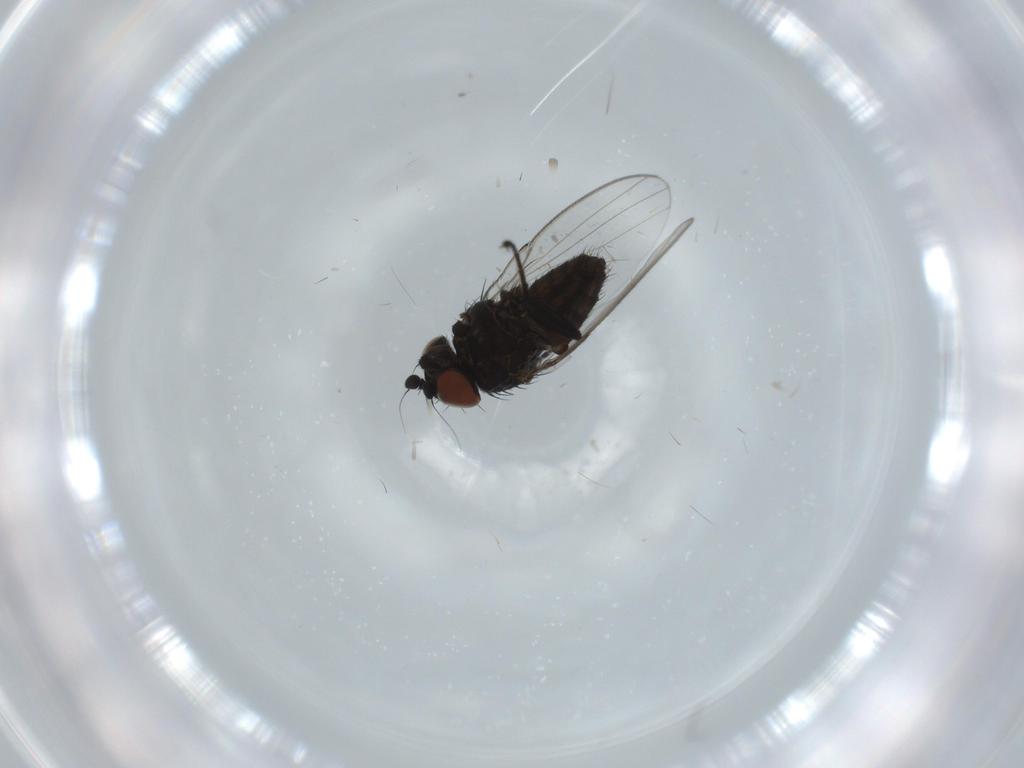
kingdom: Animalia
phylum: Arthropoda
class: Insecta
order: Diptera
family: Milichiidae
